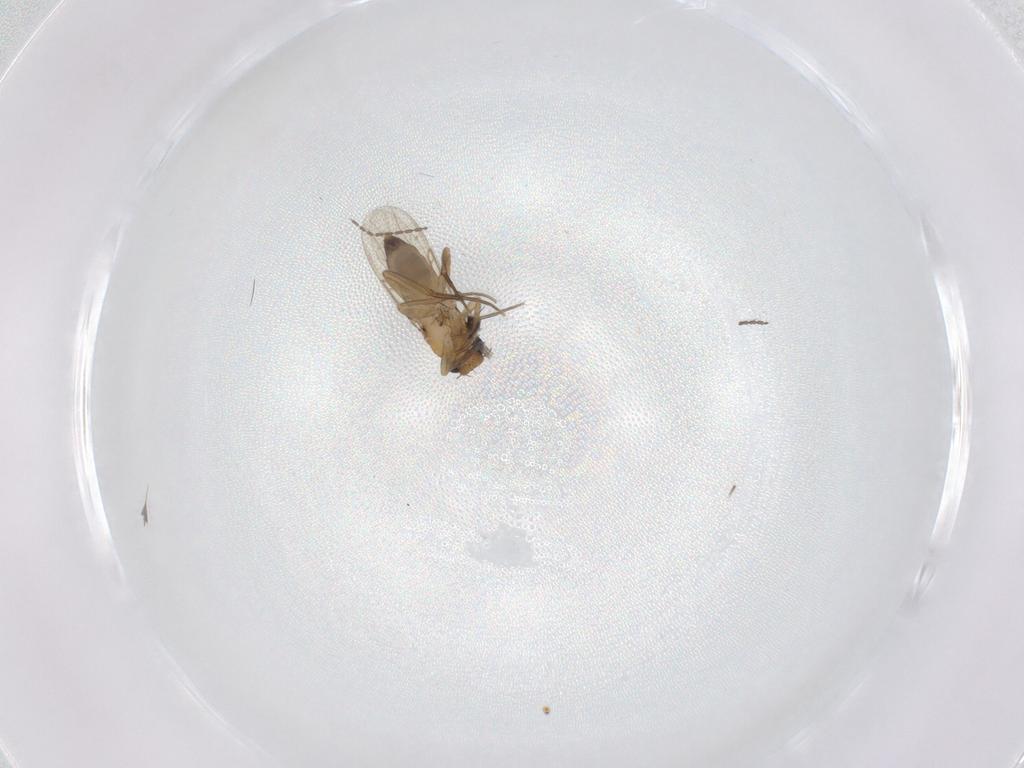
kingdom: Animalia
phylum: Arthropoda
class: Insecta
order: Diptera
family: Phoridae
